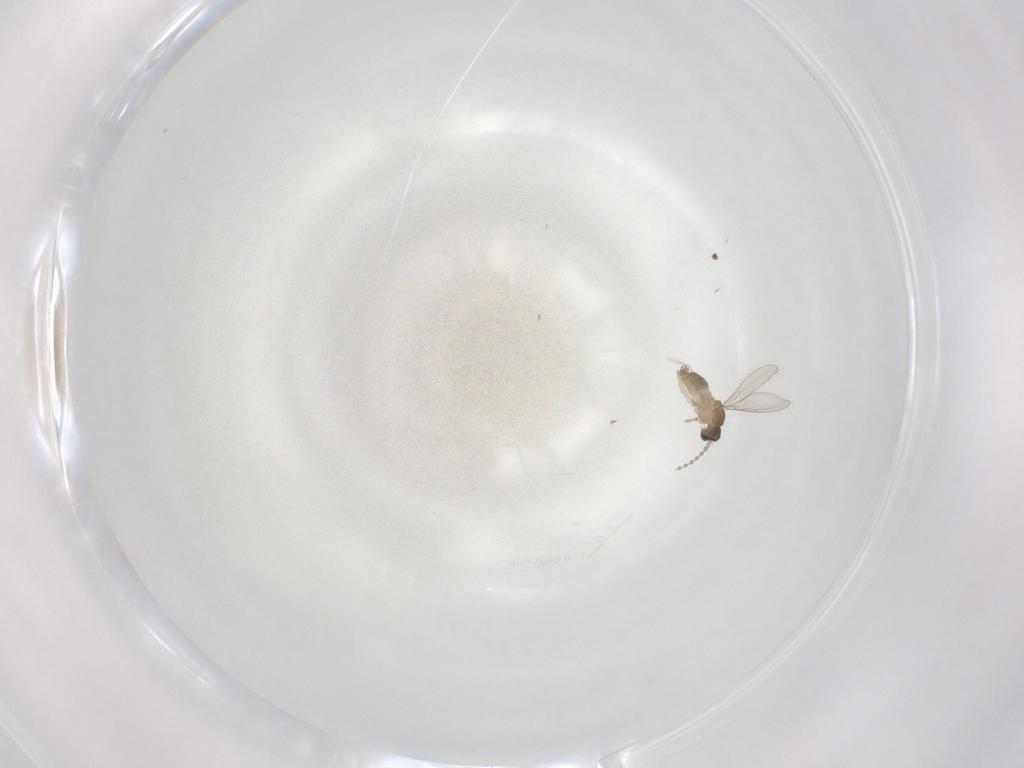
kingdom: Animalia
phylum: Arthropoda
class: Insecta
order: Diptera
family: Cecidomyiidae
